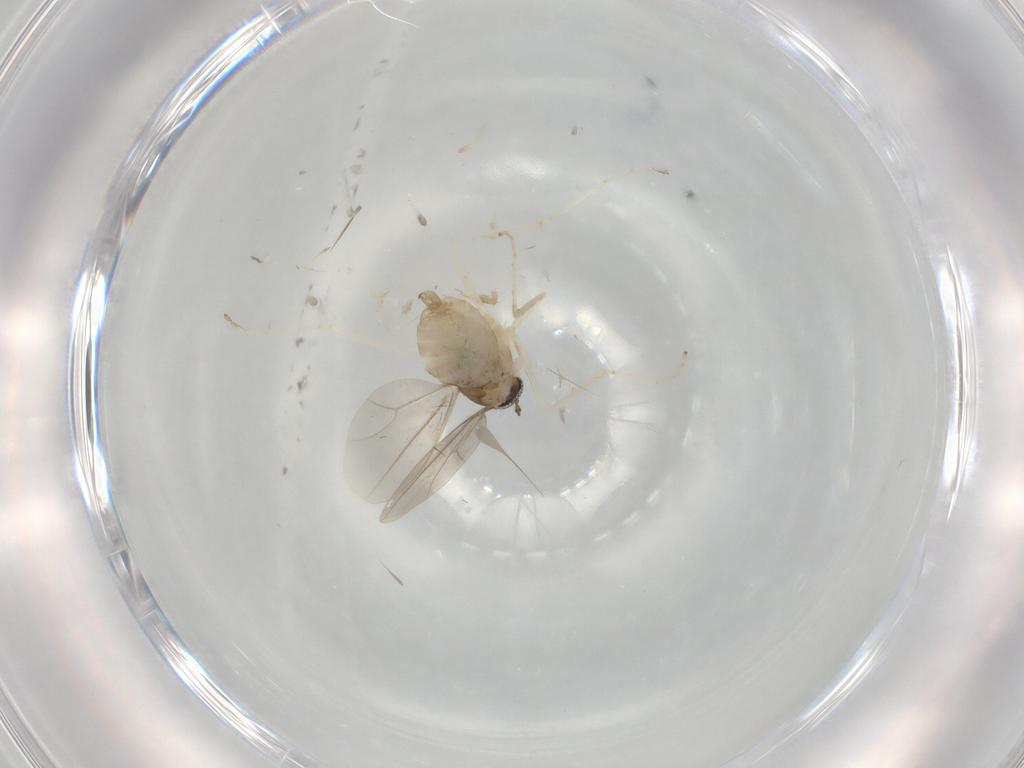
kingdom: Animalia
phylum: Arthropoda
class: Insecta
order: Diptera
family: Phoridae
